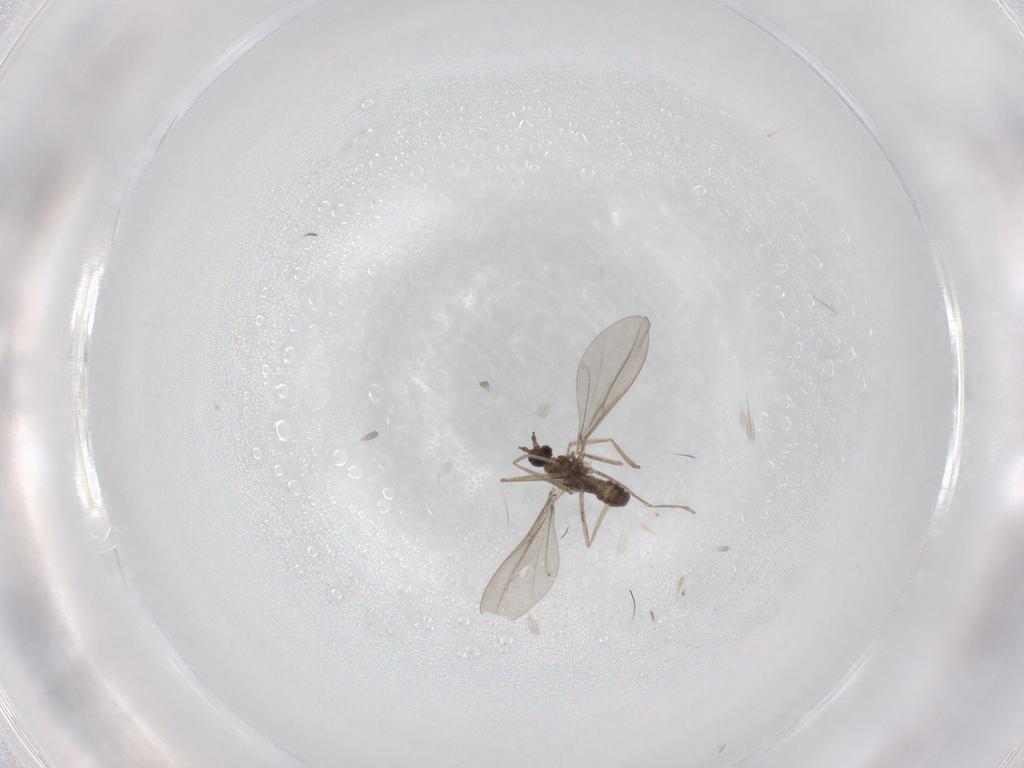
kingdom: Animalia
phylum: Arthropoda
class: Insecta
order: Diptera
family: Cecidomyiidae
